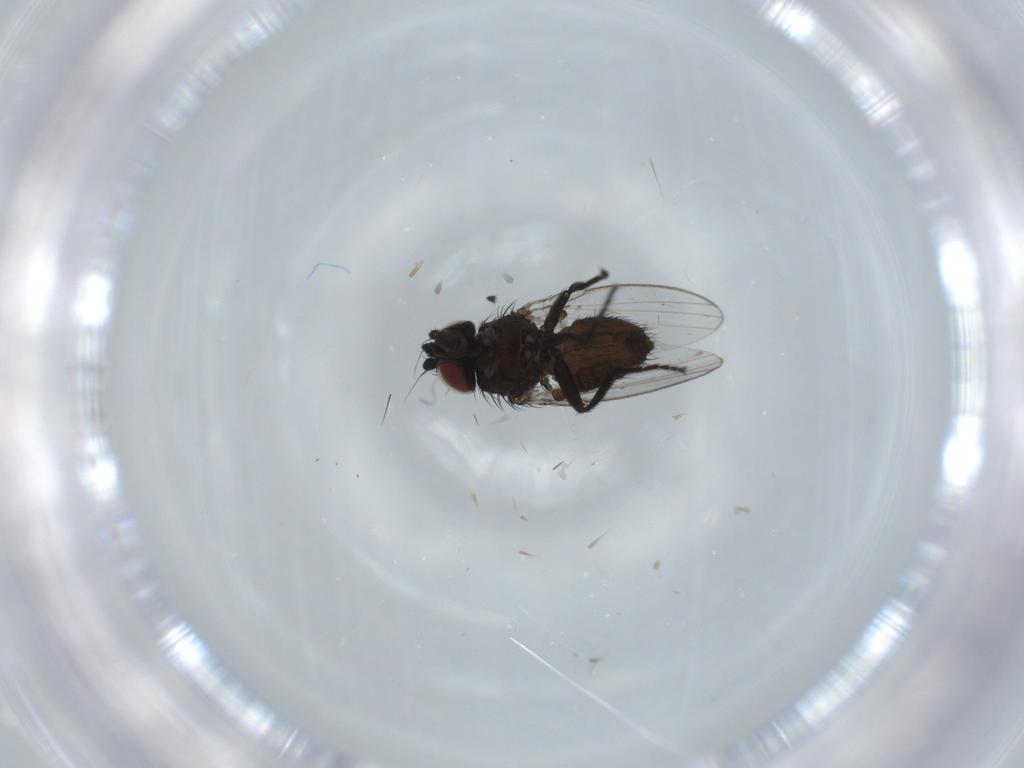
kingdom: Animalia
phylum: Arthropoda
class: Insecta
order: Diptera
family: Milichiidae
